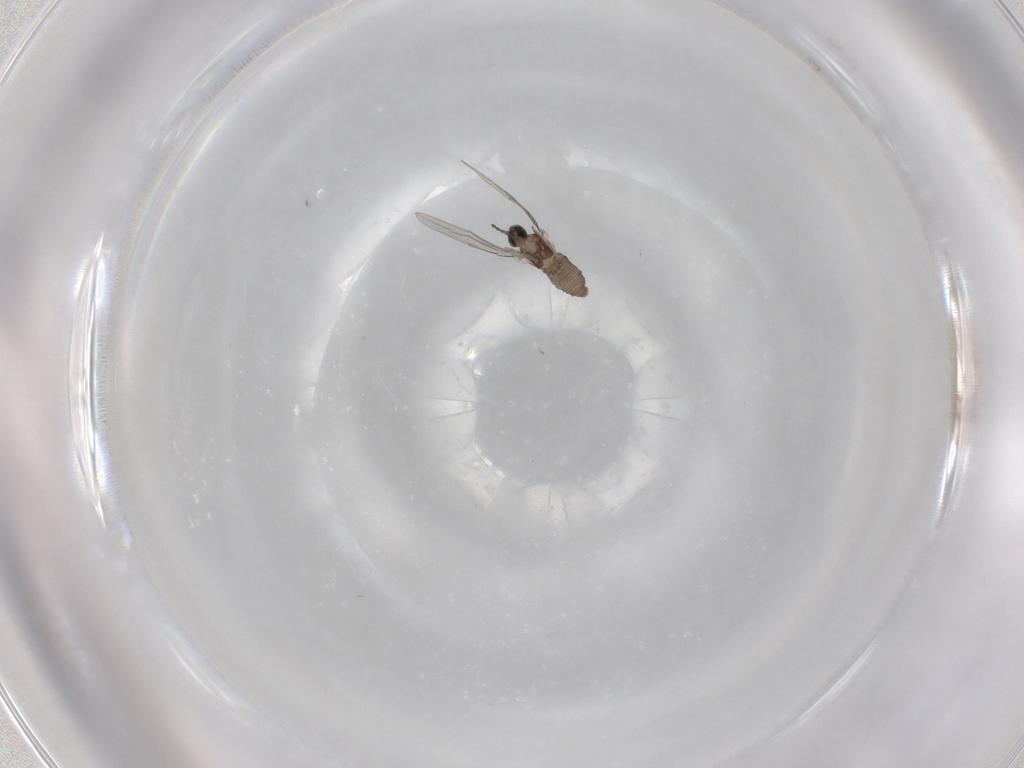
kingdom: Animalia
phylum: Arthropoda
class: Insecta
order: Diptera
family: Cecidomyiidae
